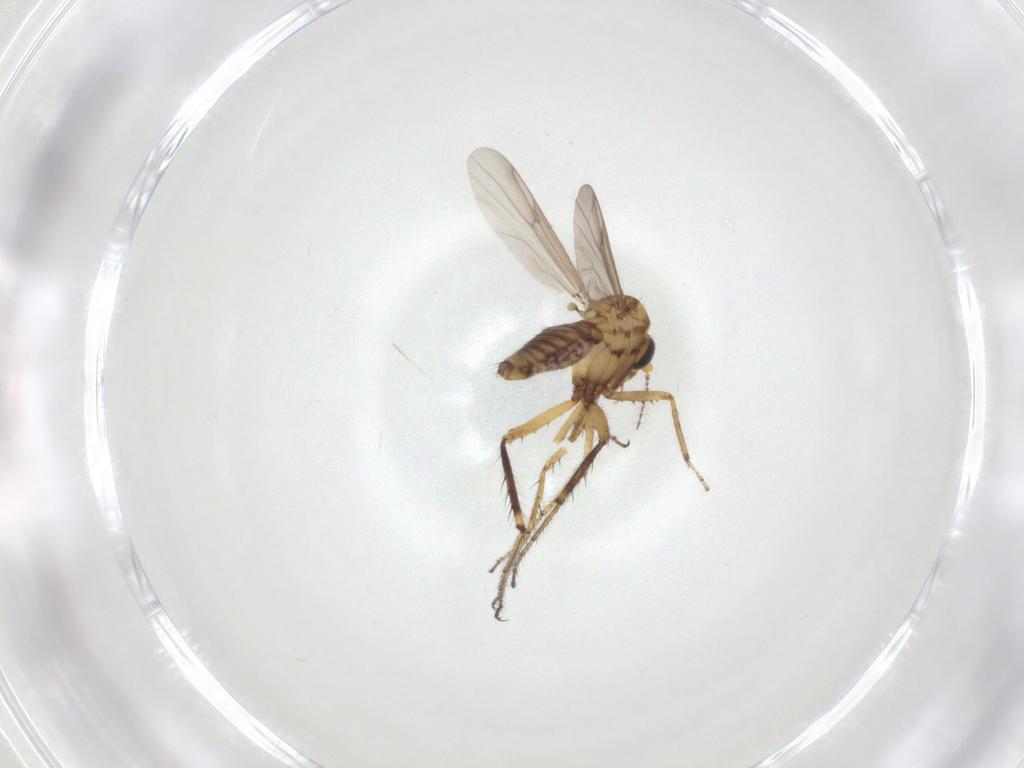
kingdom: Animalia
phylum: Arthropoda
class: Insecta
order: Diptera
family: Ceratopogonidae
